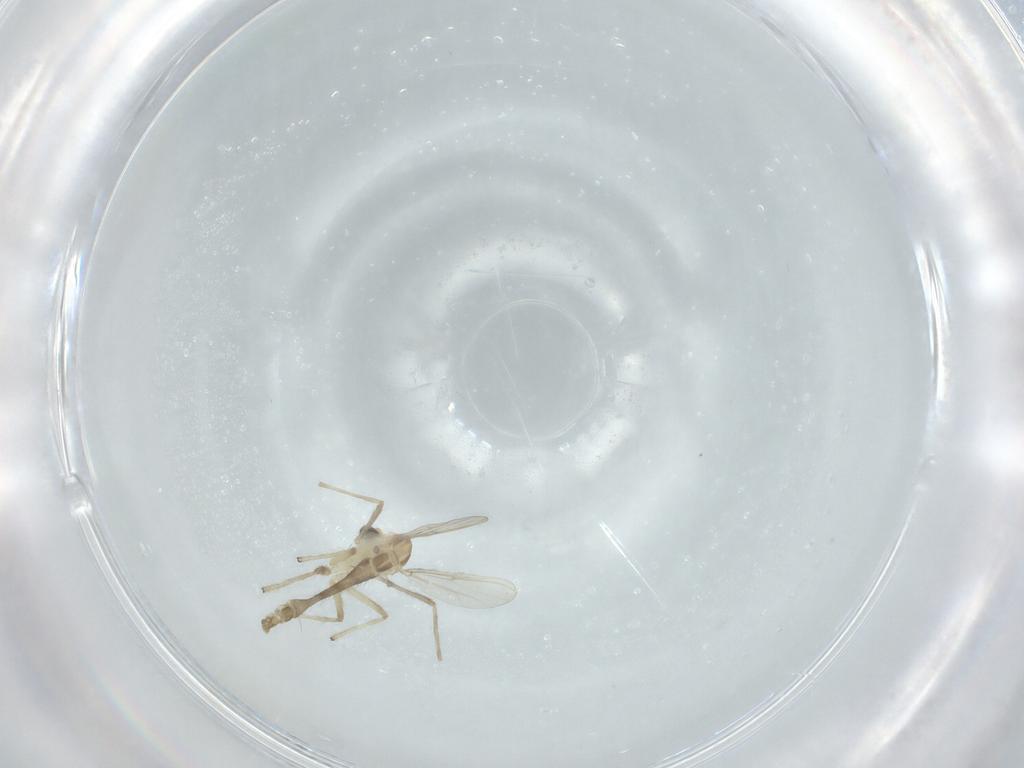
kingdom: Animalia
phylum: Arthropoda
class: Insecta
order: Diptera
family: Chironomidae
